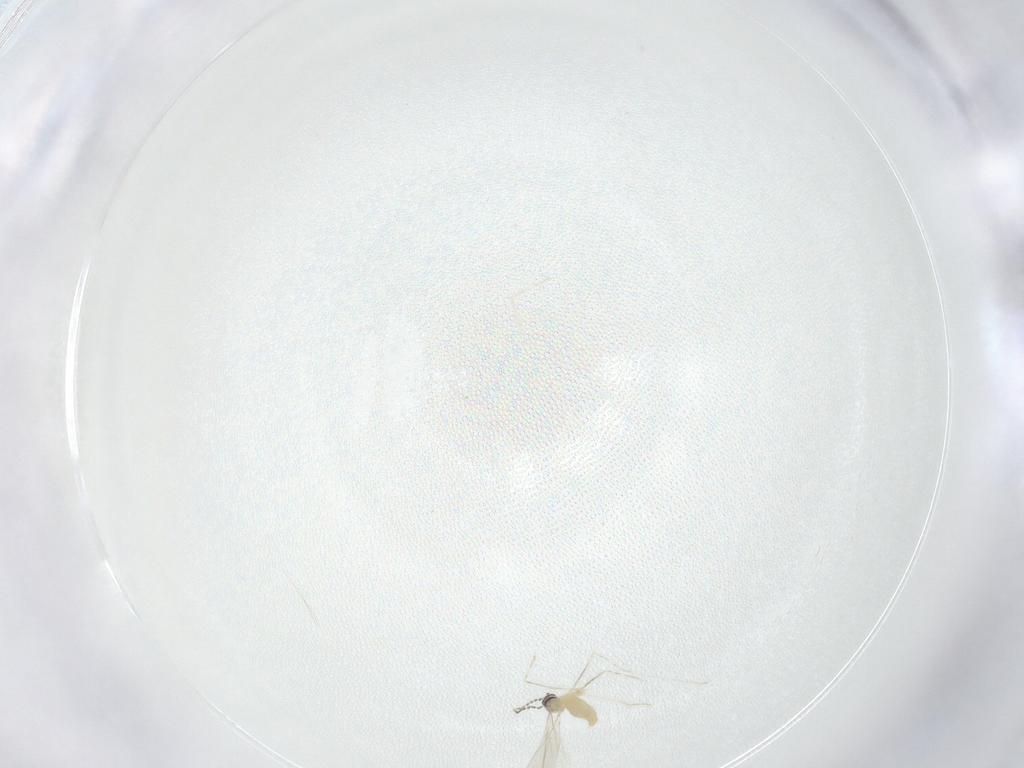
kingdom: Animalia
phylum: Arthropoda
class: Insecta
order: Diptera
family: Cecidomyiidae
